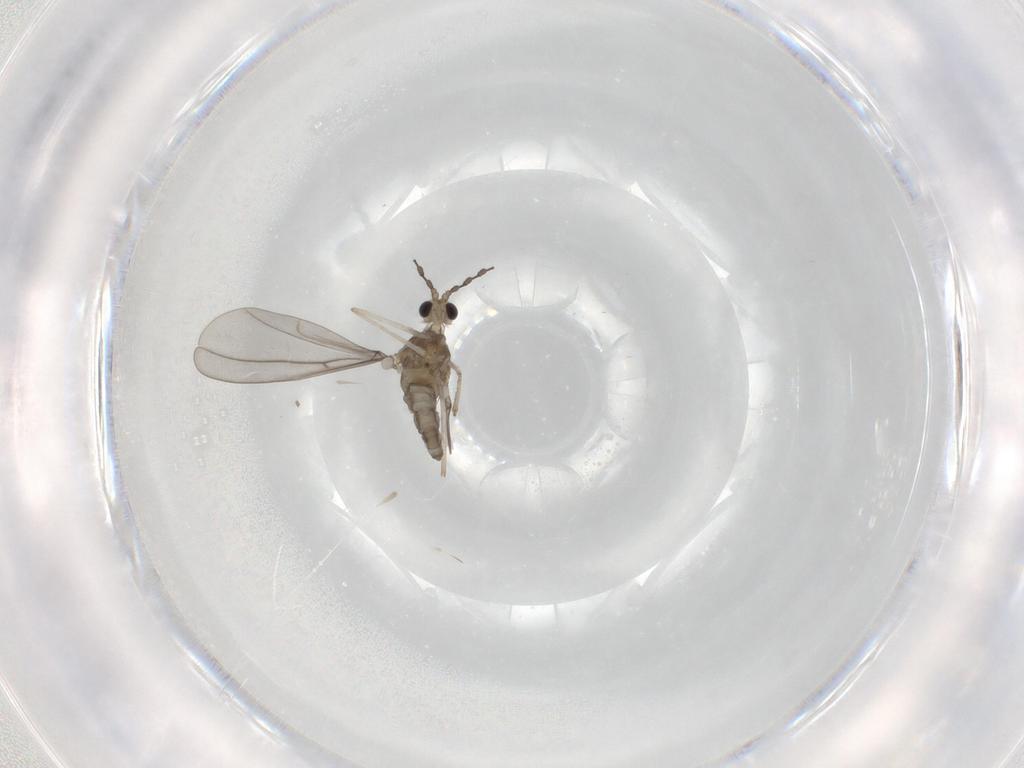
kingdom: Animalia
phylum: Arthropoda
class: Insecta
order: Diptera
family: Cecidomyiidae
